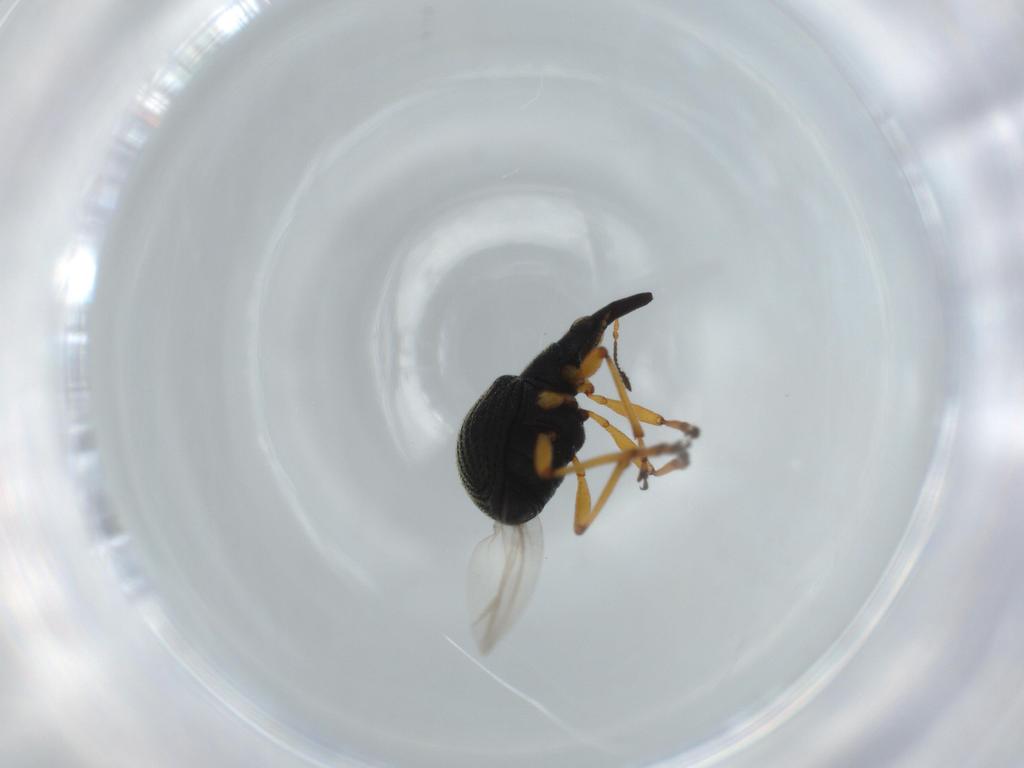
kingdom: Animalia
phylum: Arthropoda
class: Insecta
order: Coleoptera
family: Brentidae
